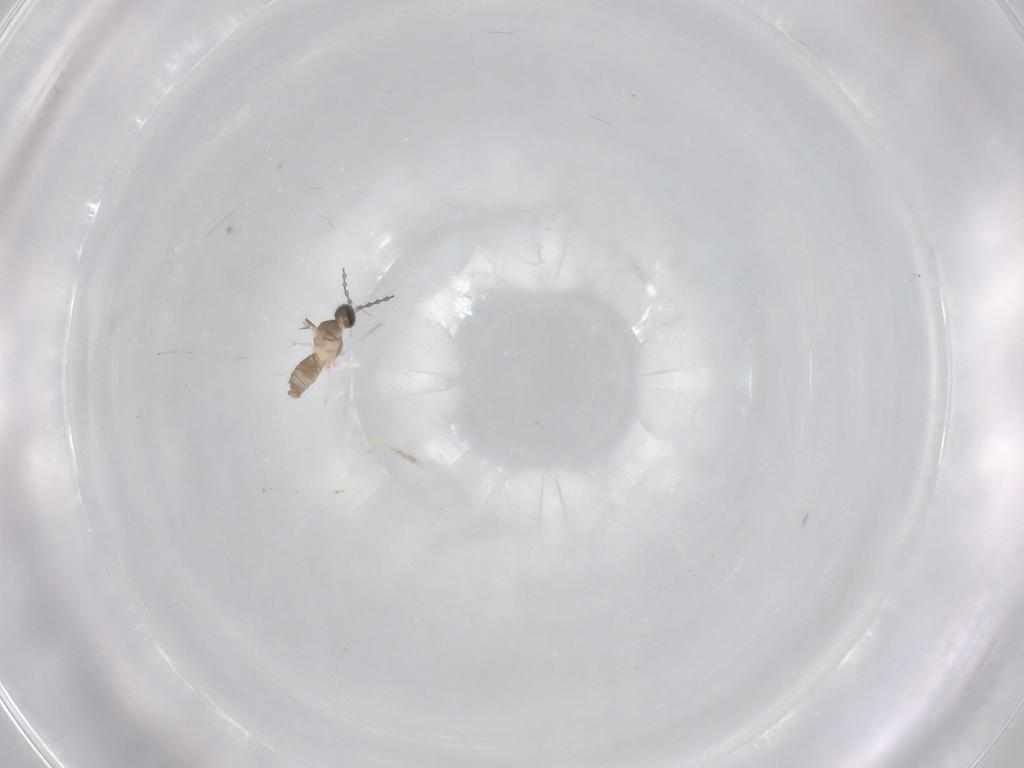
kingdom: Animalia
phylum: Arthropoda
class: Insecta
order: Diptera
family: Cecidomyiidae
